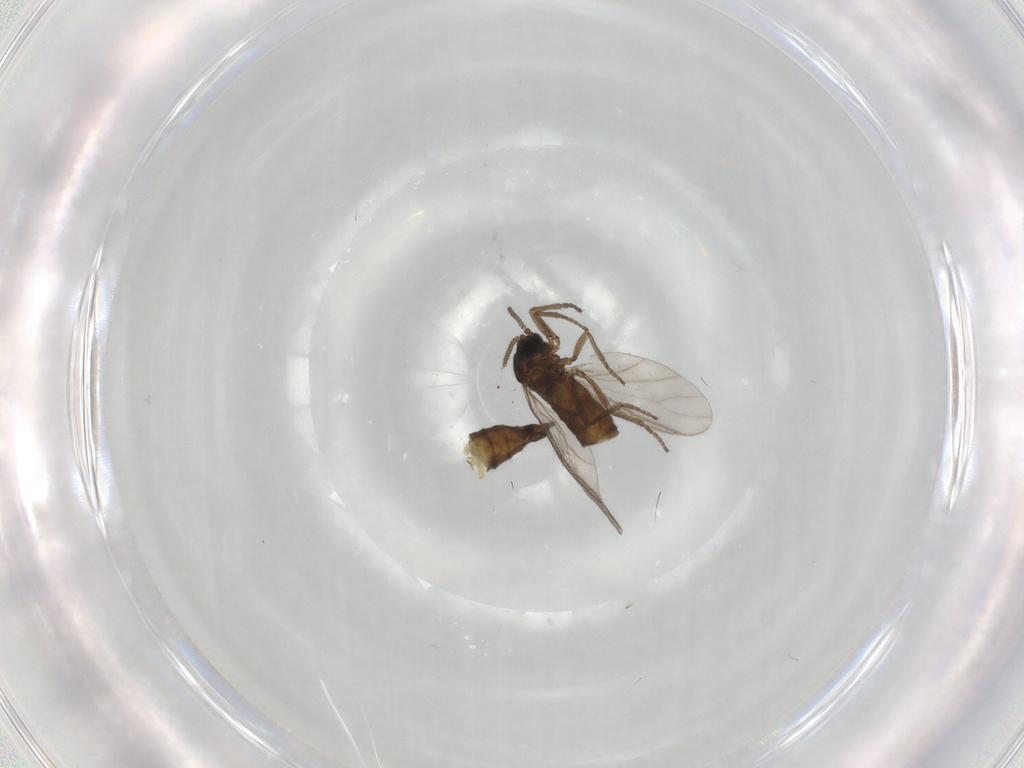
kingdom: Animalia
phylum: Arthropoda
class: Insecta
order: Diptera
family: Sciaridae
